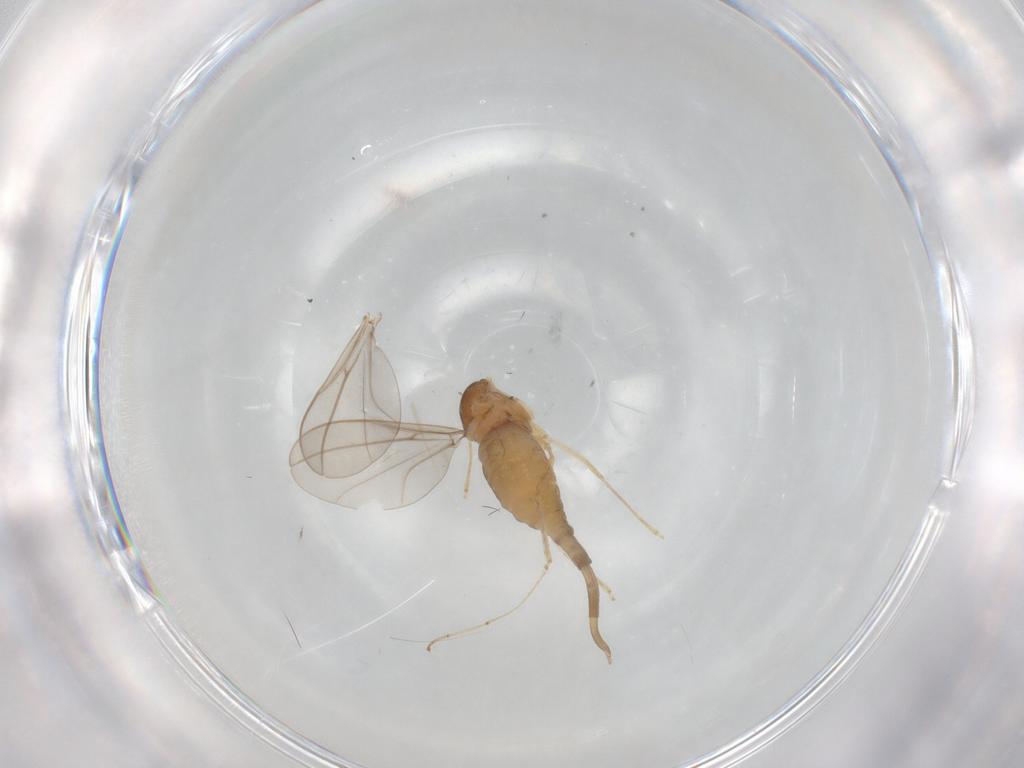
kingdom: Animalia
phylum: Arthropoda
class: Insecta
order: Diptera
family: Cecidomyiidae
